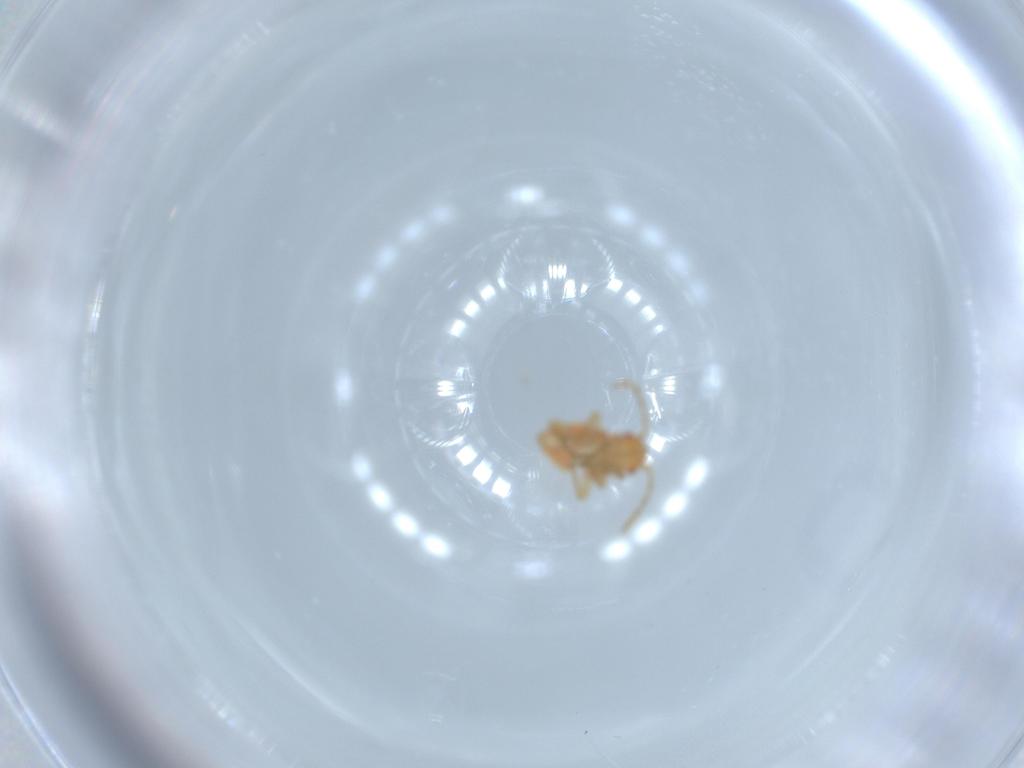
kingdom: Animalia
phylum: Arthropoda
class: Insecta
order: Hemiptera
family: Miridae
